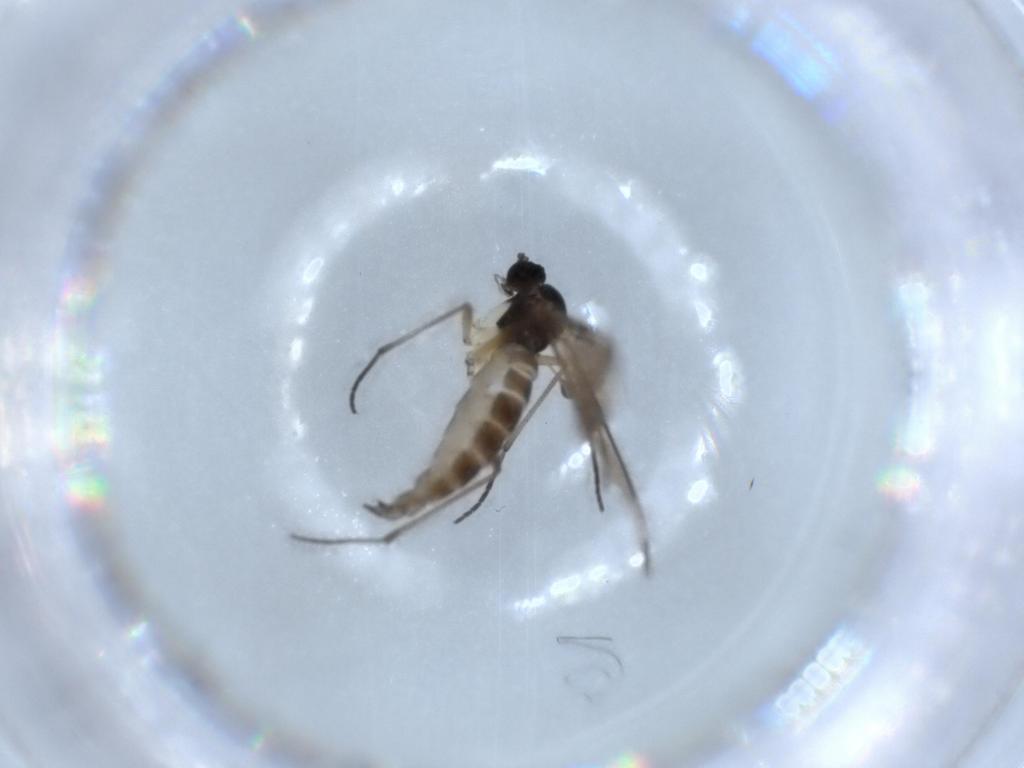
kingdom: Animalia
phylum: Arthropoda
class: Insecta
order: Diptera
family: Sciaridae
